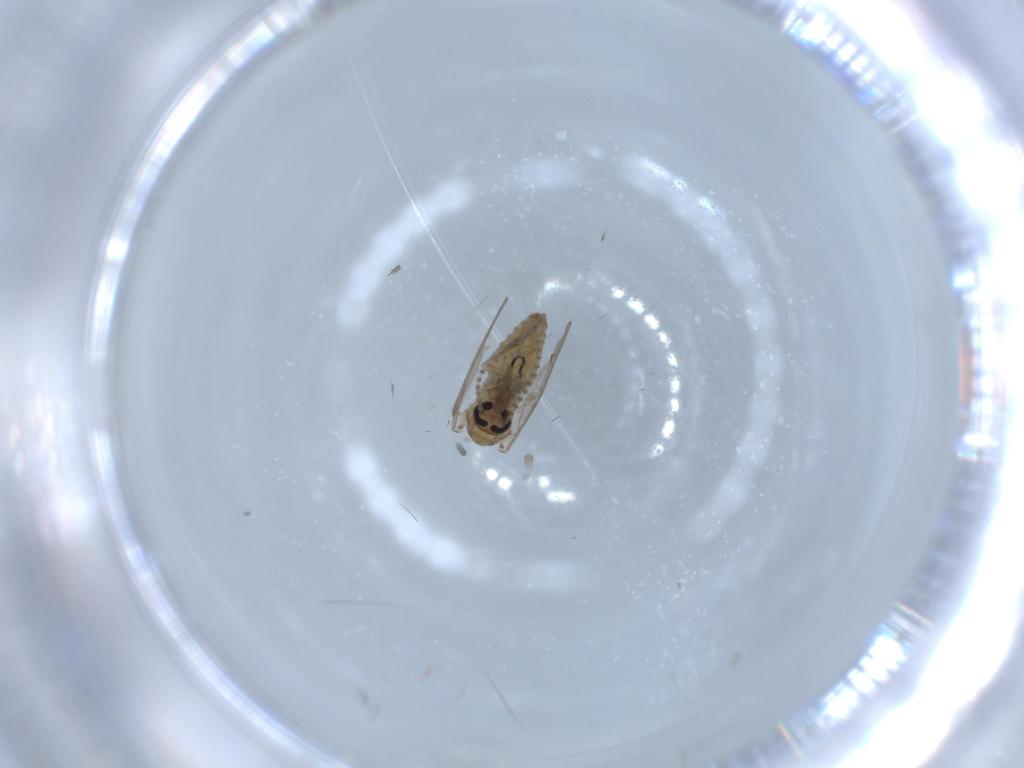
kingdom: Animalia
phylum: Arthropoda
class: Insecta
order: Diptera
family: Psychodidae
